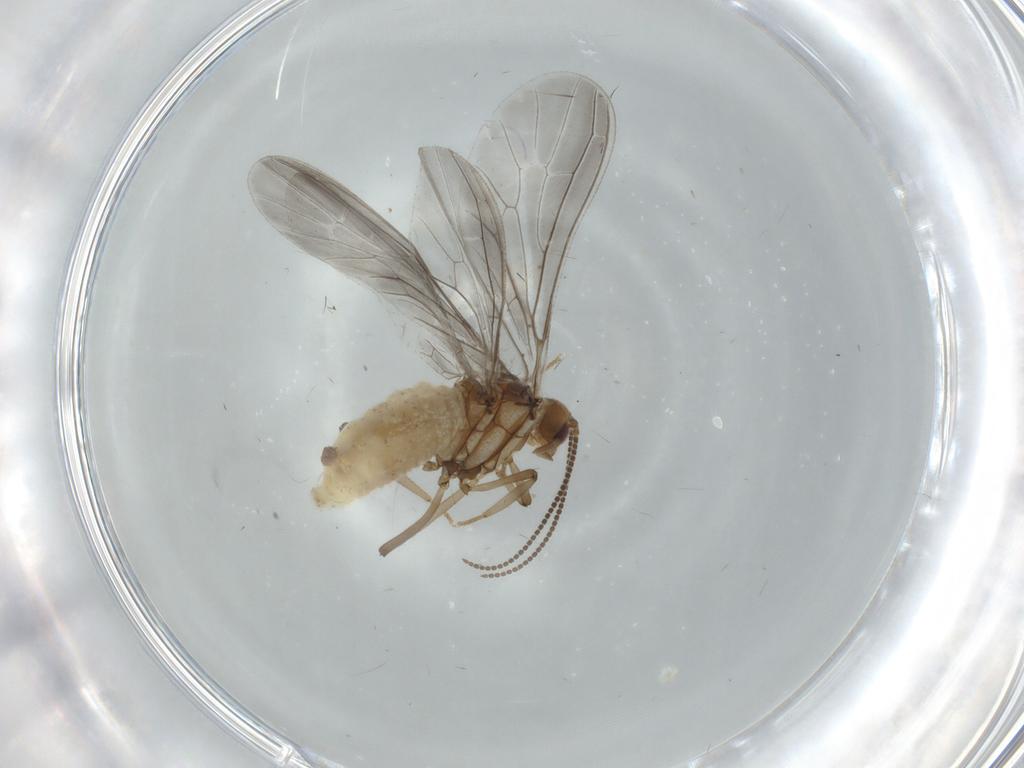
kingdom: Animalia
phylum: Arthropoda
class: Insecta
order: Neuroptera
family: Coniopterygidae
